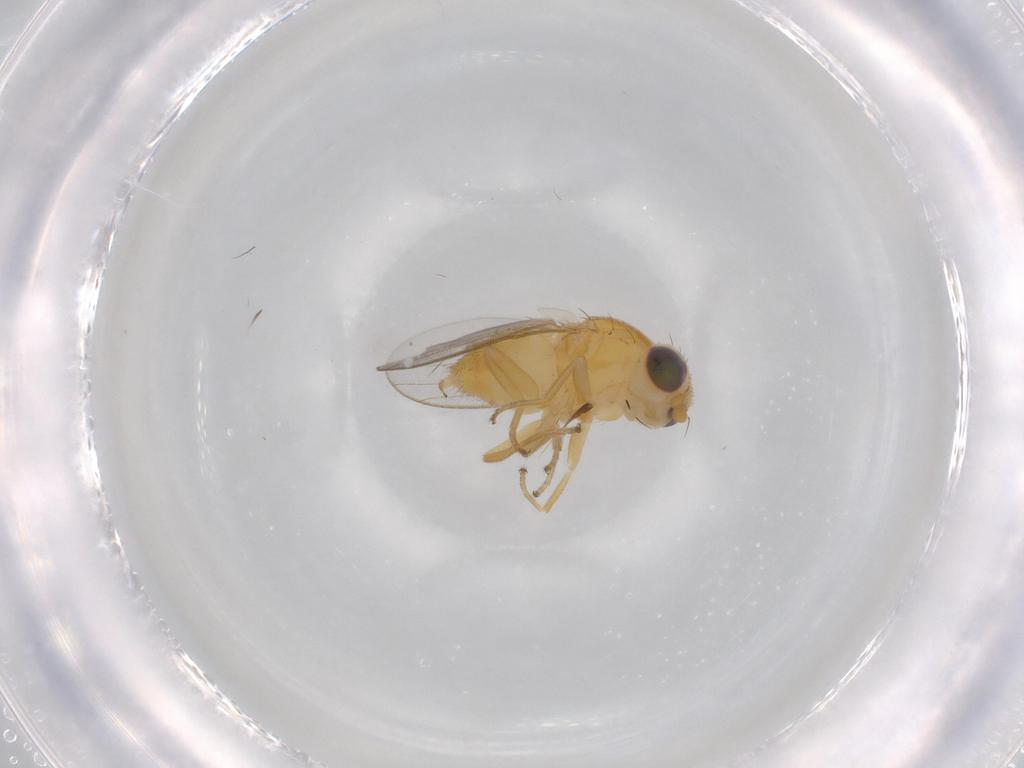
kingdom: Animalia
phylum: Arthropoda
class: Insecta
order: Diptera
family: Chloropidae
